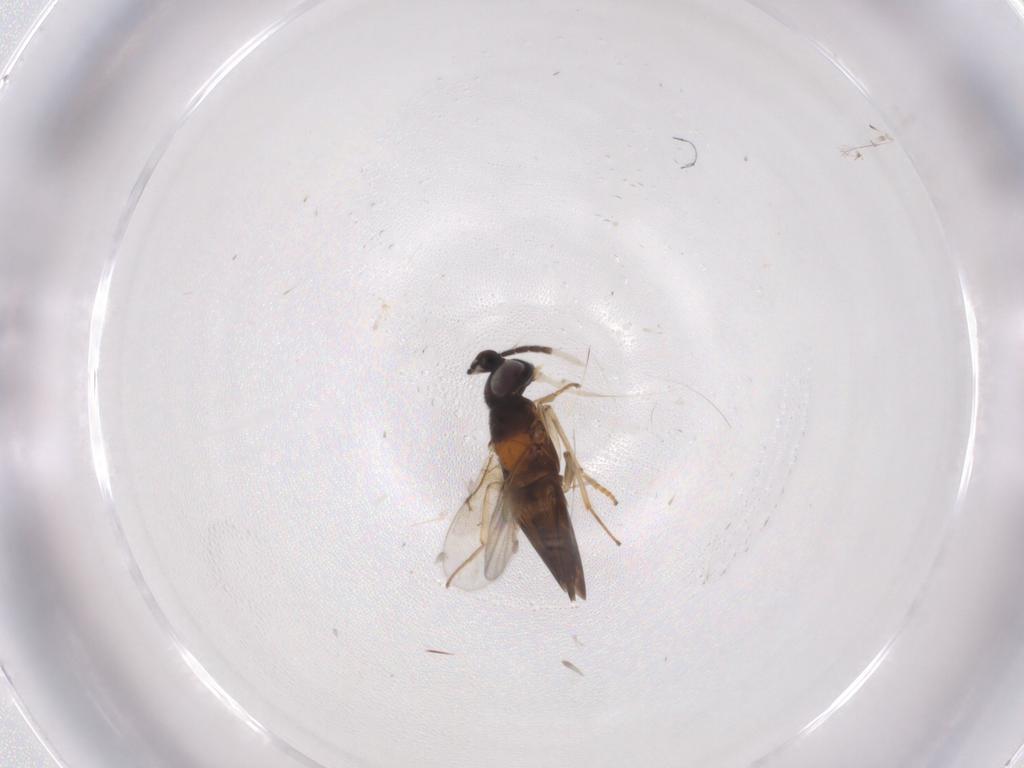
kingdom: Animalia
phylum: Arthropoda
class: Insecta
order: Hymenoptera
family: Encyrtidae
